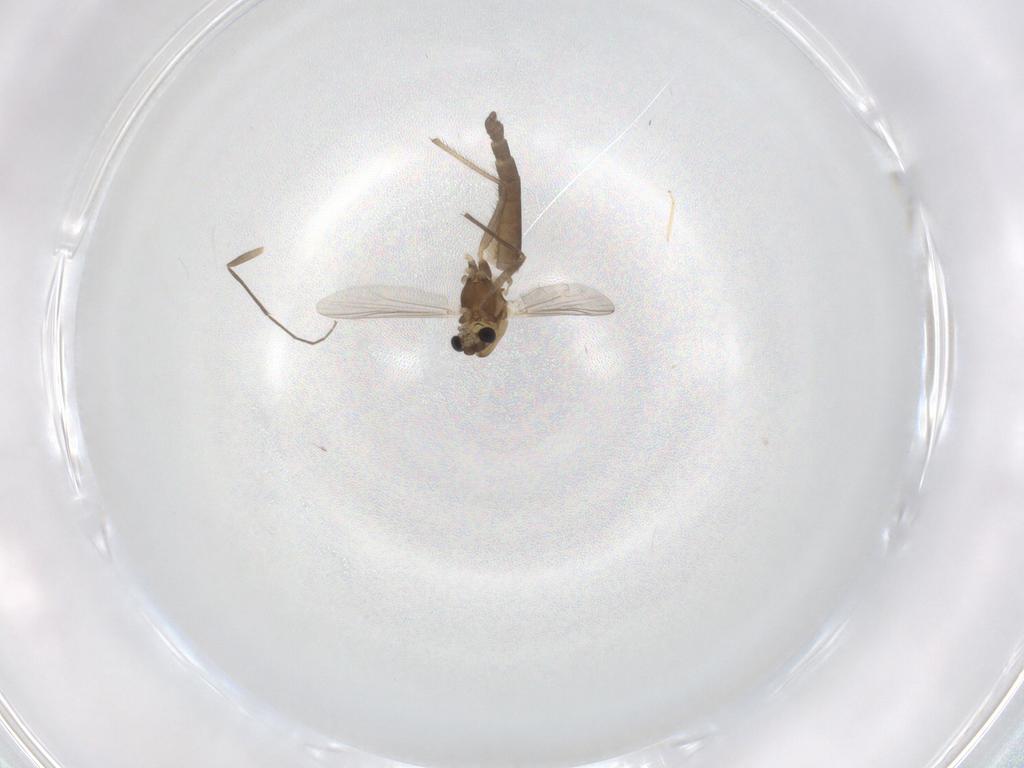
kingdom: Animalia
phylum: Arthropoda
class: Insecta
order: Diptera
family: Chironomidae
